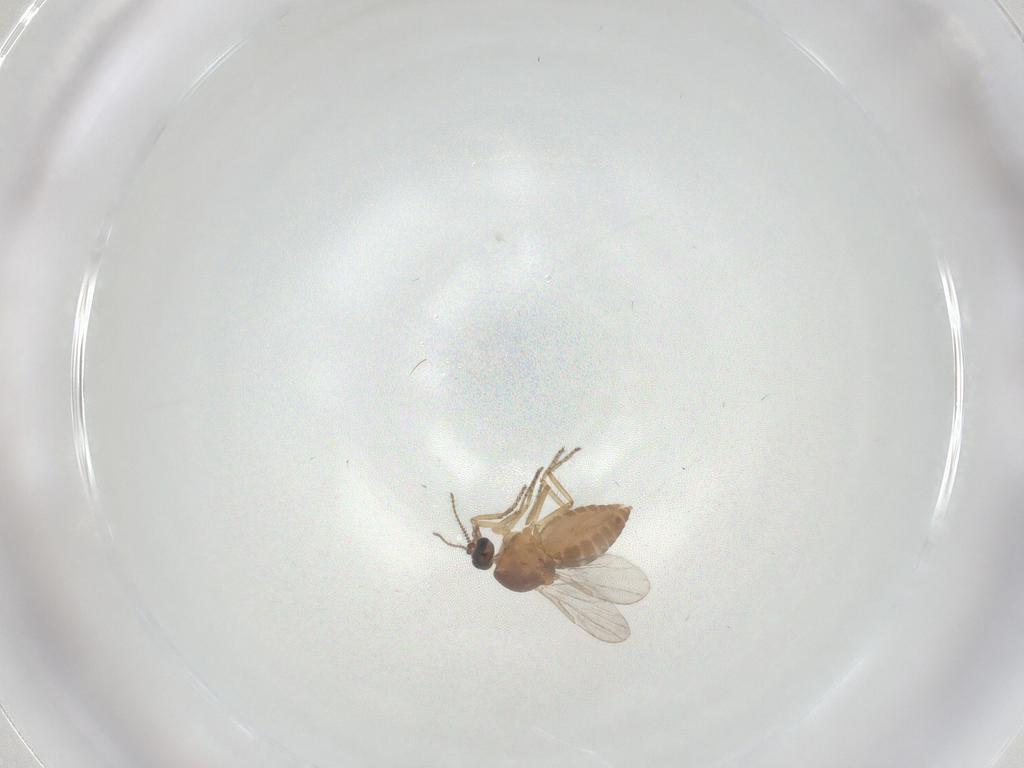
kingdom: Animalia
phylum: Arthropoda
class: Insecta
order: Diptera
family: Ceratopogonidae
